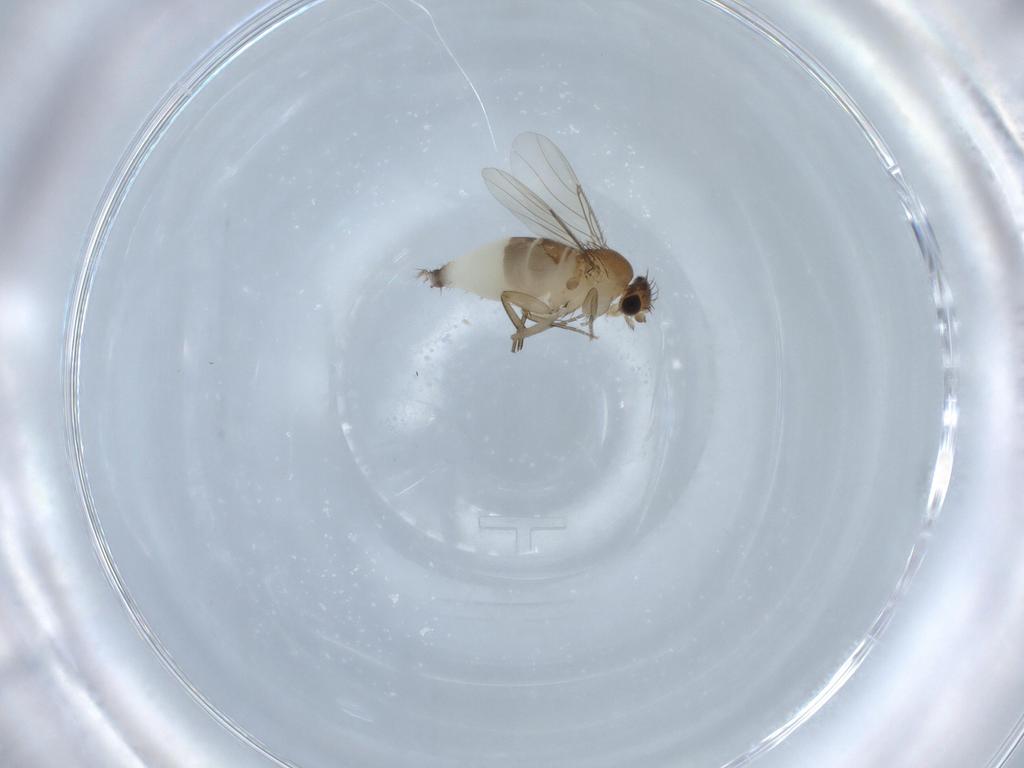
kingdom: Animalia
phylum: Arthropoda
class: Insecta
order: Diptera
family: Phoridae
